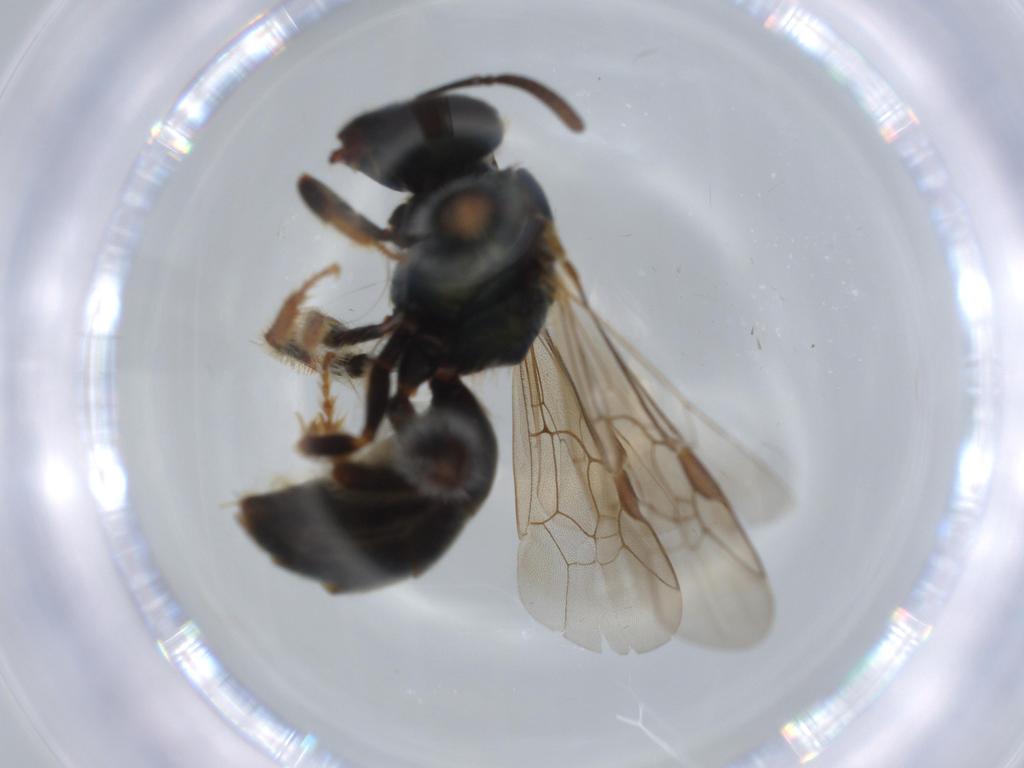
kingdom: Animalia
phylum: Arthropoda
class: Insecta
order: Hymenoptera
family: Halictidae
